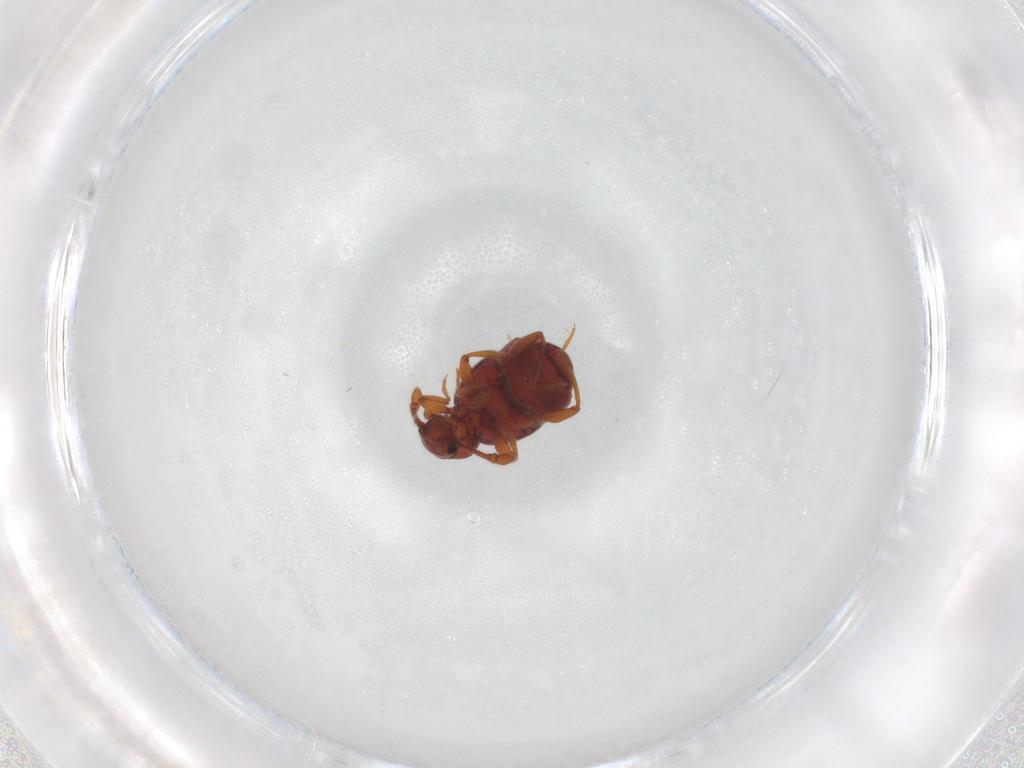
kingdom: Animalia
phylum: Arthropoda
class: Insecta
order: Coleoptera
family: Staphylinidae
